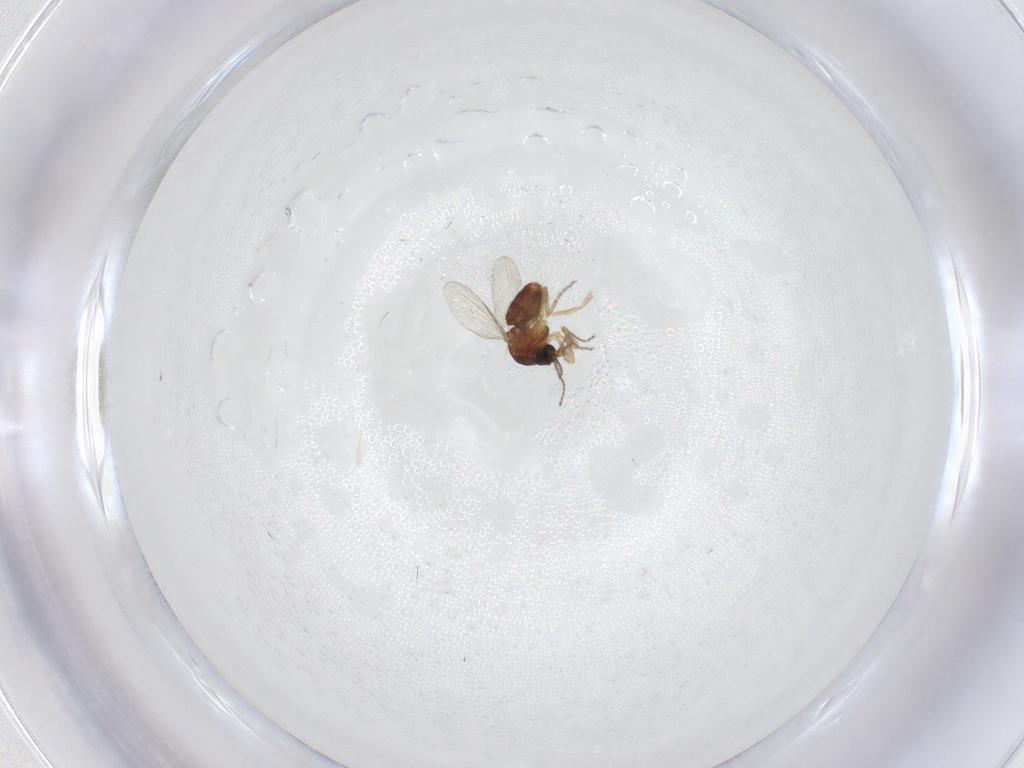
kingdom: Animalia
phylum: Arthropoda
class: Insecta
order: Diptera
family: Ceratopogonidae
